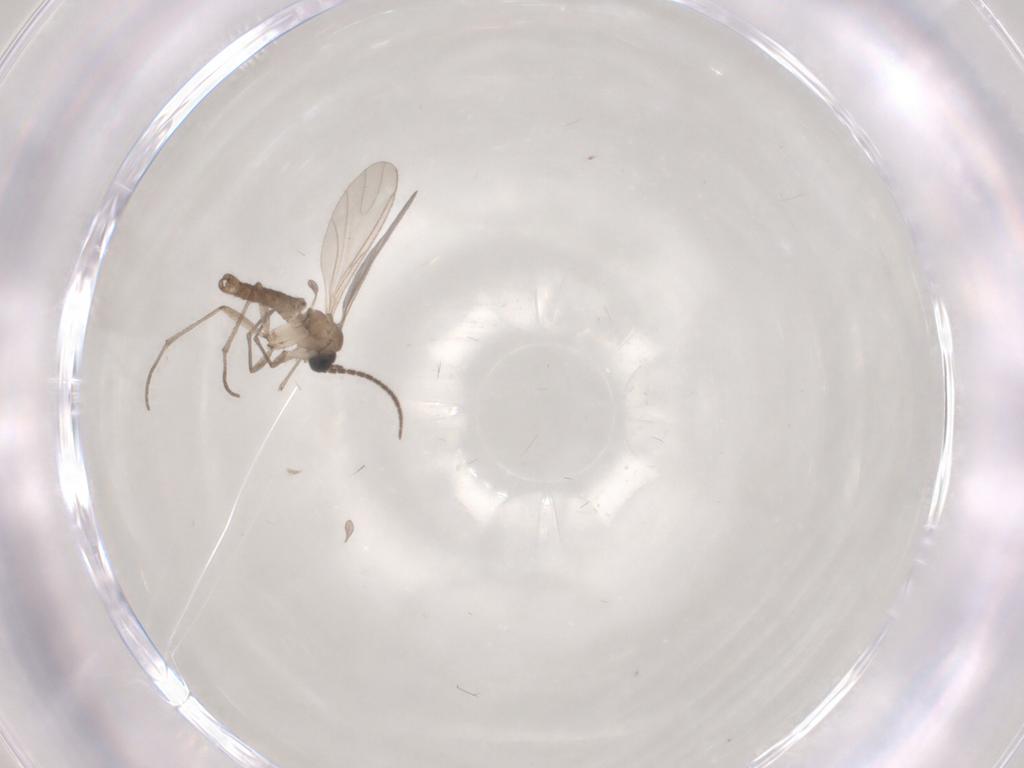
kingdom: Animalia
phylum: Arthropoda
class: Insecta
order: Diptera
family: Sciaridae
